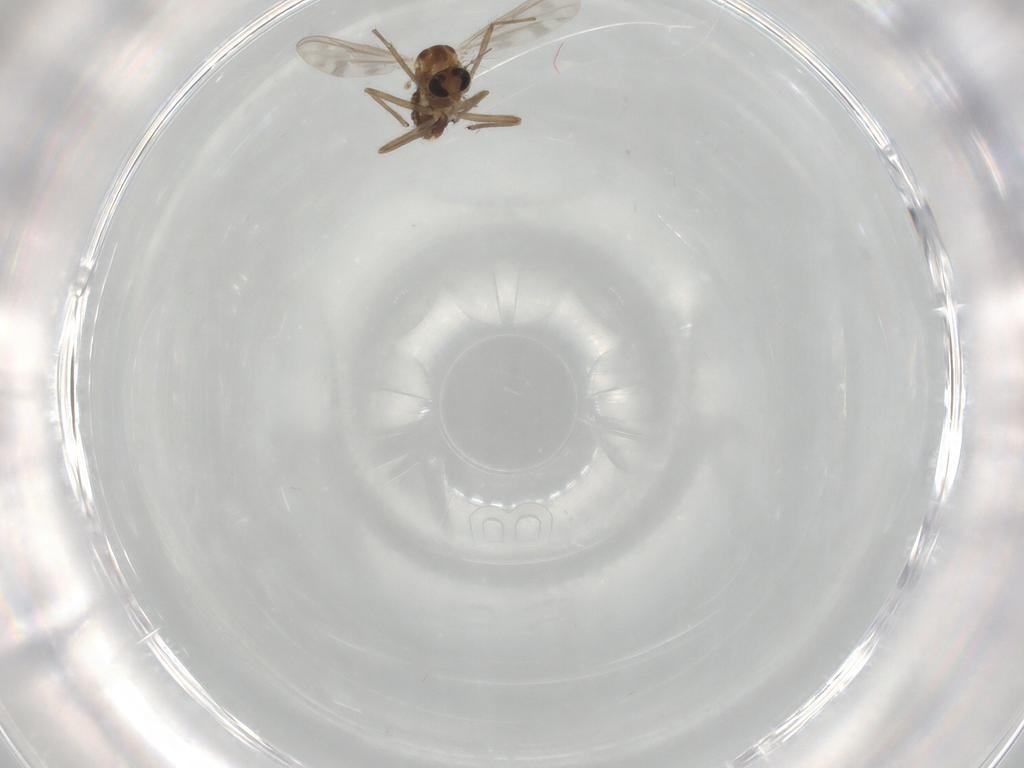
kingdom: Animalia
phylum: Arthropoda
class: Insecta
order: Diptera
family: Chironomidae
